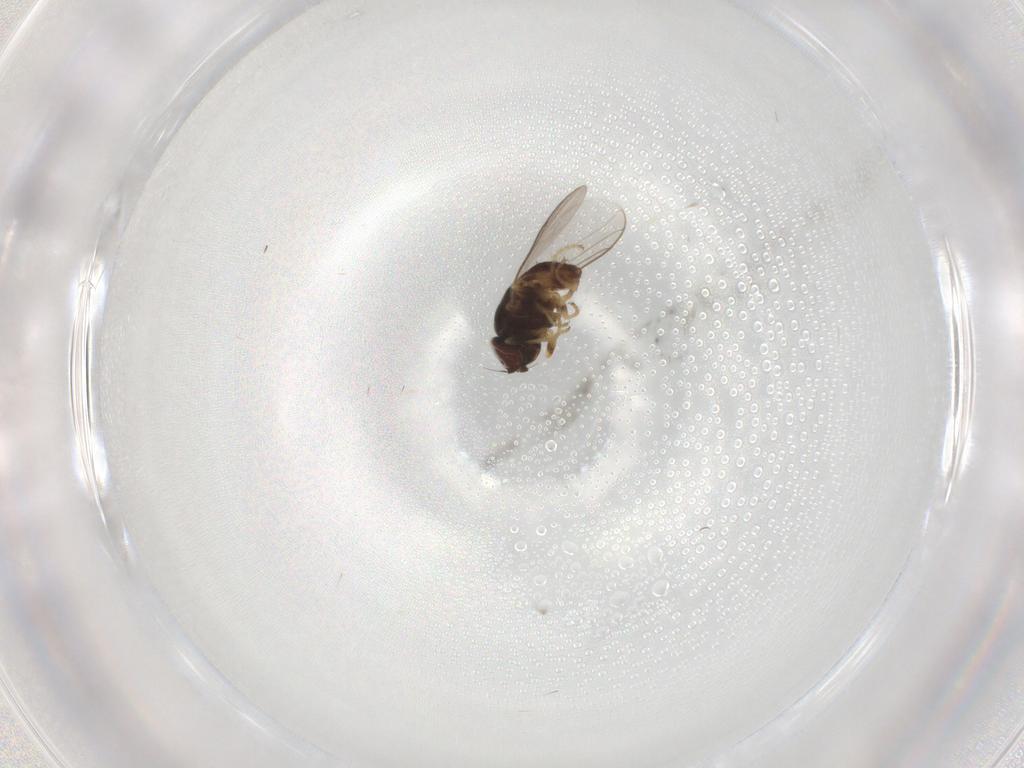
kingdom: Animalia
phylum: Arthropoda
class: Insecta
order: Diptera
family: Chloropidae
